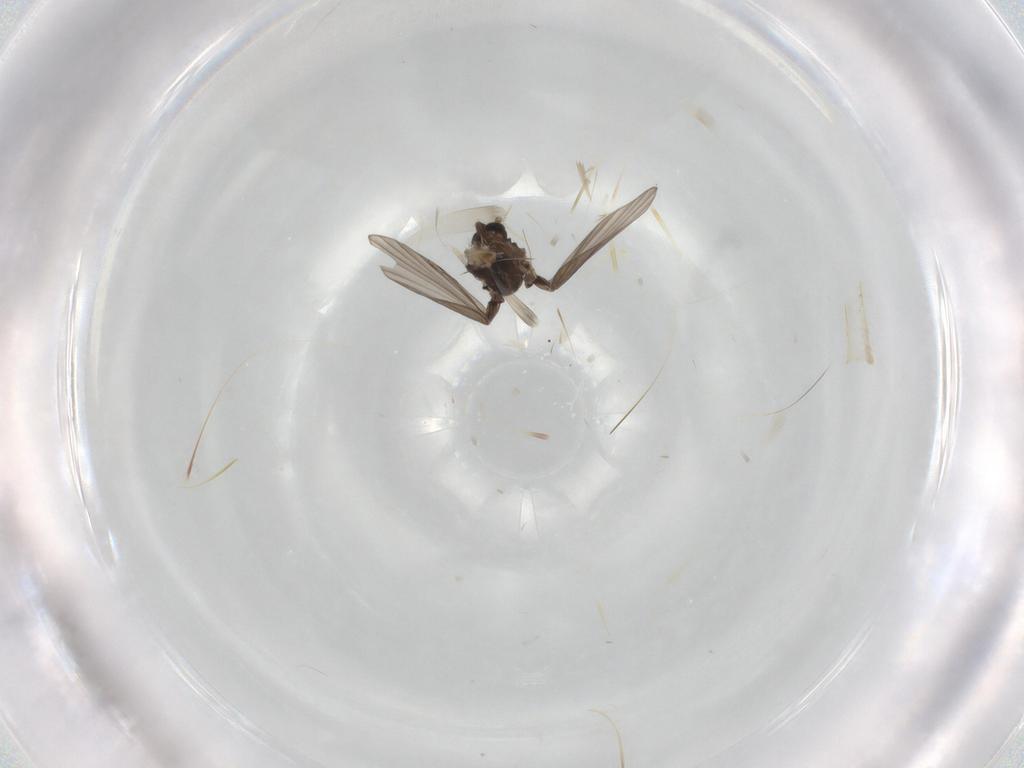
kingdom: Animalia
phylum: Arthropoda
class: Insecta
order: Diptera
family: Psychodidae
